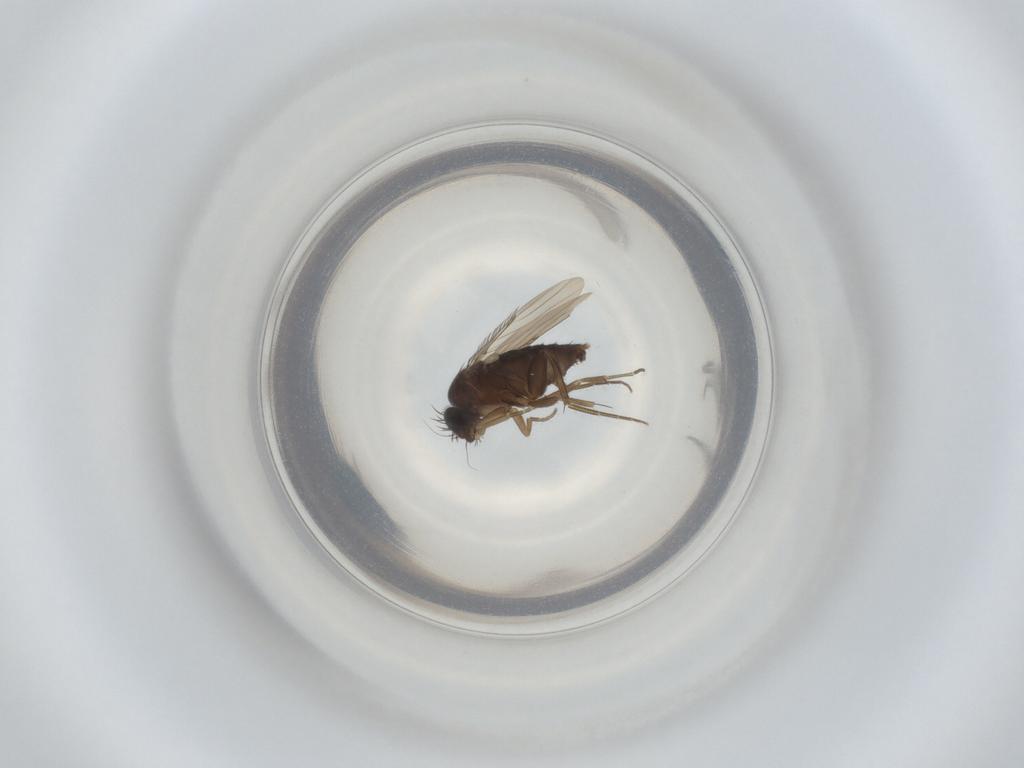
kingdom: Animalia
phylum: Arthropoda
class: Insecta
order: Diptera
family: Phoridae
